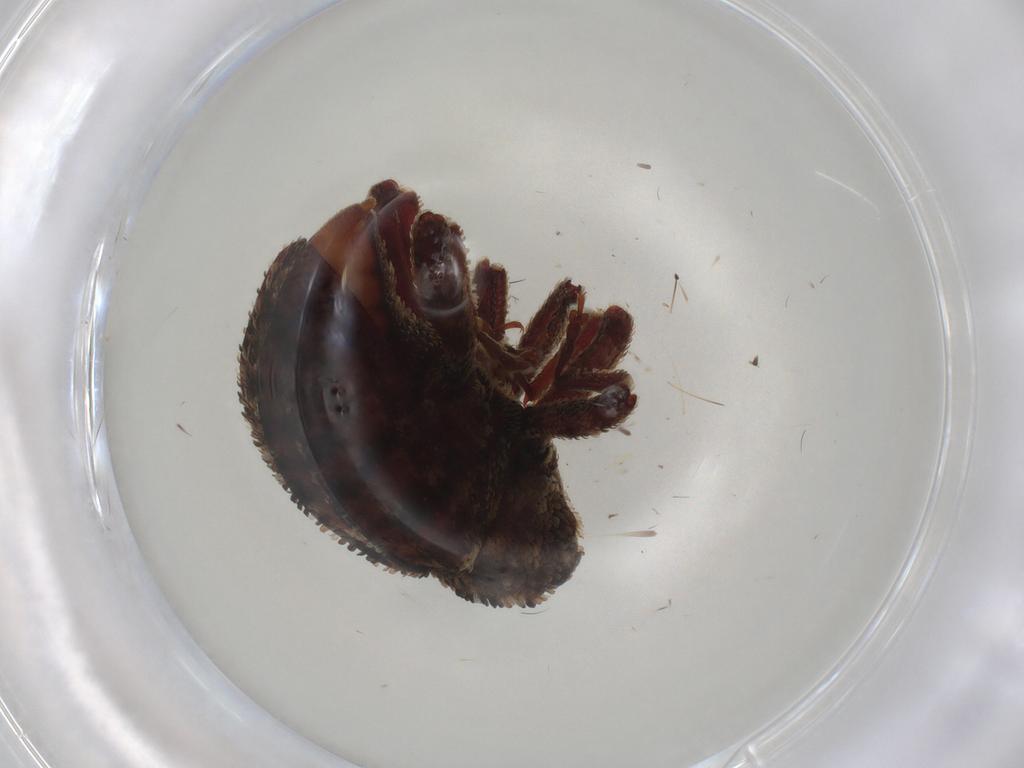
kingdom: Animalia
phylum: Arthropoda
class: Insecta
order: Coleoptera
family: Curculionidae
